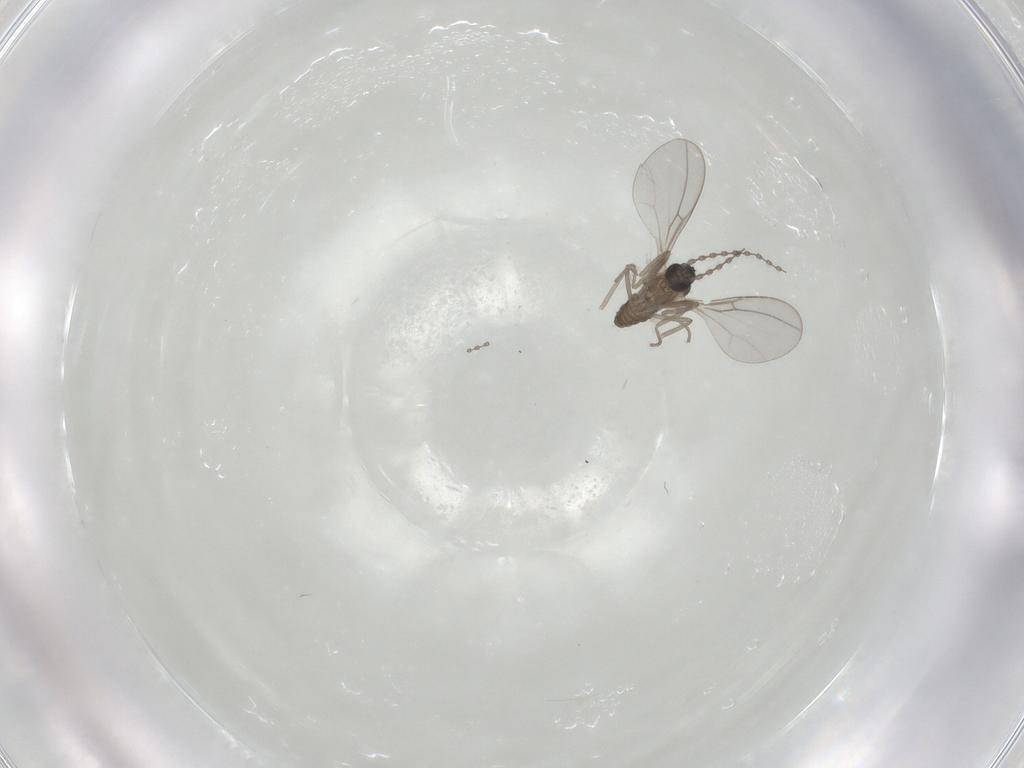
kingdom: Animalia
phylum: Arthropoda
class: Insecta
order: Diptera
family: Cecidomyiidae
